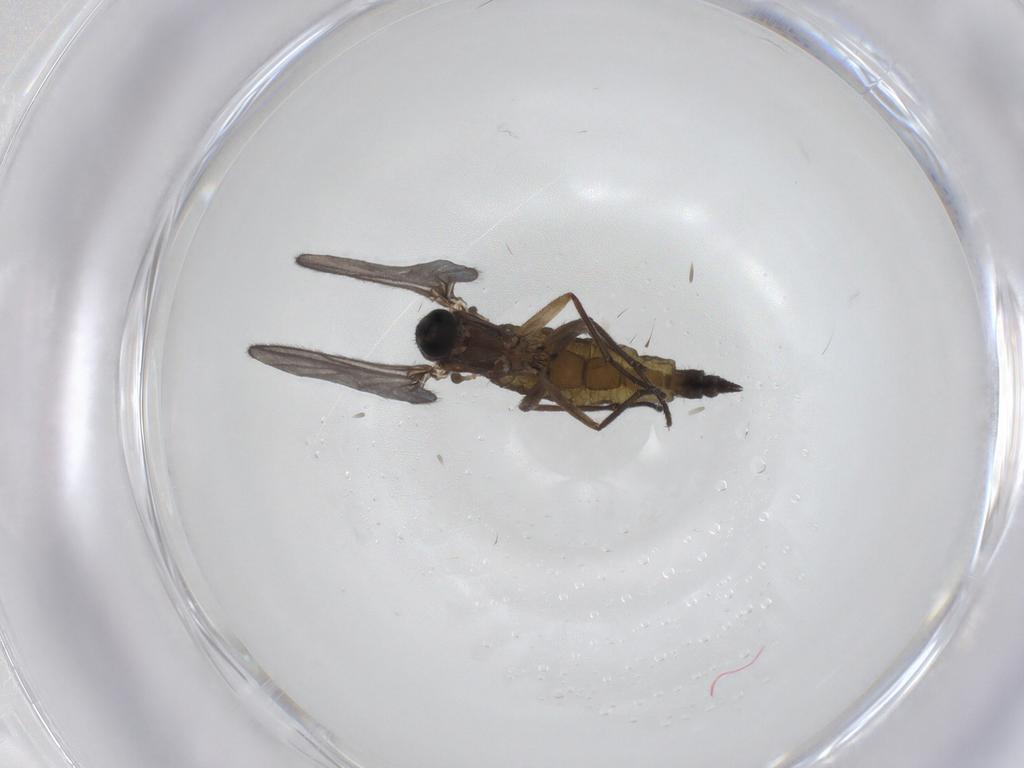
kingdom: Animalia
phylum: Arthropoda
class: Insecta
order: Diptera
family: Sciaridae
